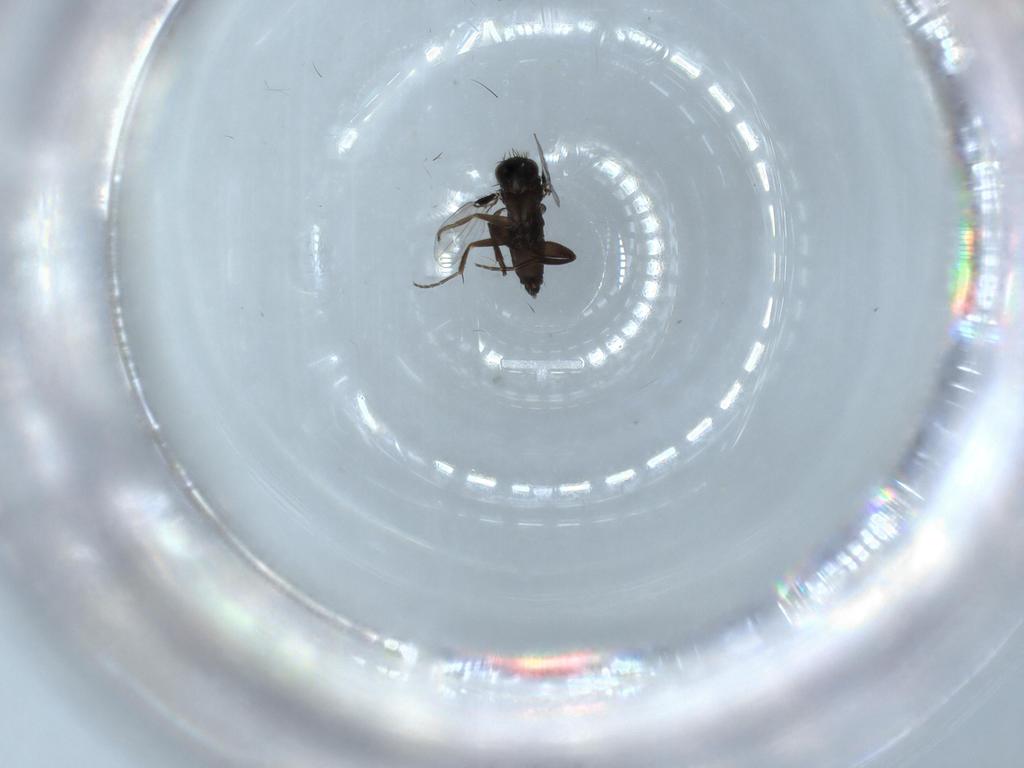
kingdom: Animalia
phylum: Arthropoda
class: Insecta
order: Diptera
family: Phoridae
